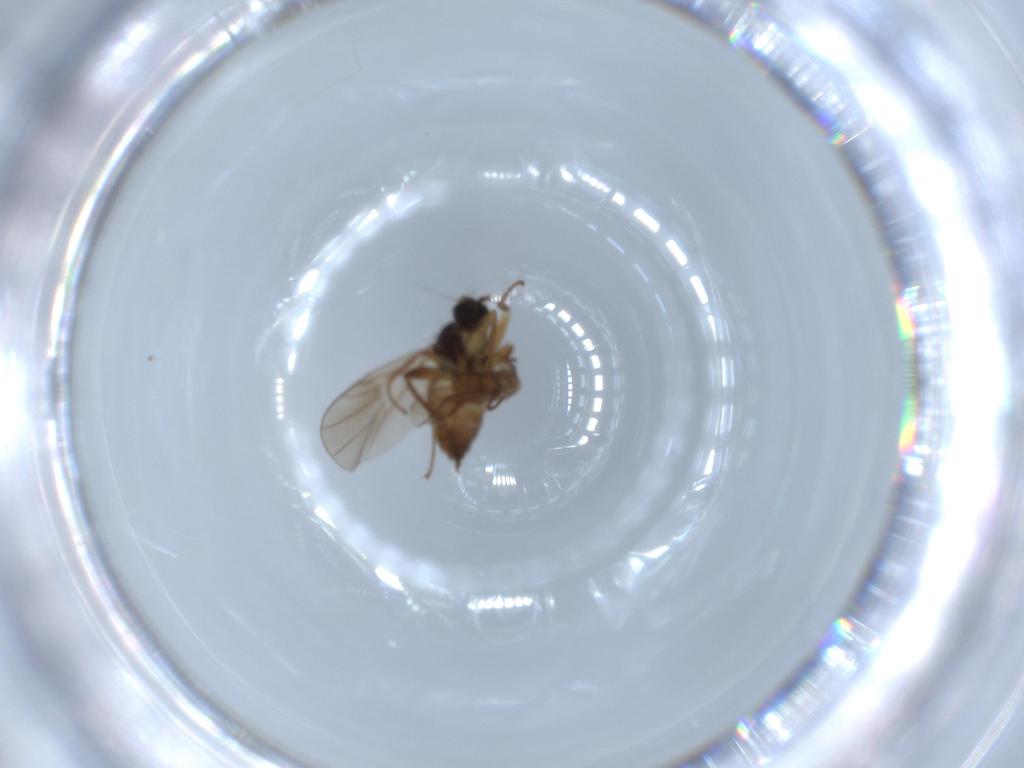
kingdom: Animalia
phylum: Arthropoda
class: Insecta
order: Diptera
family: Hybotidae
